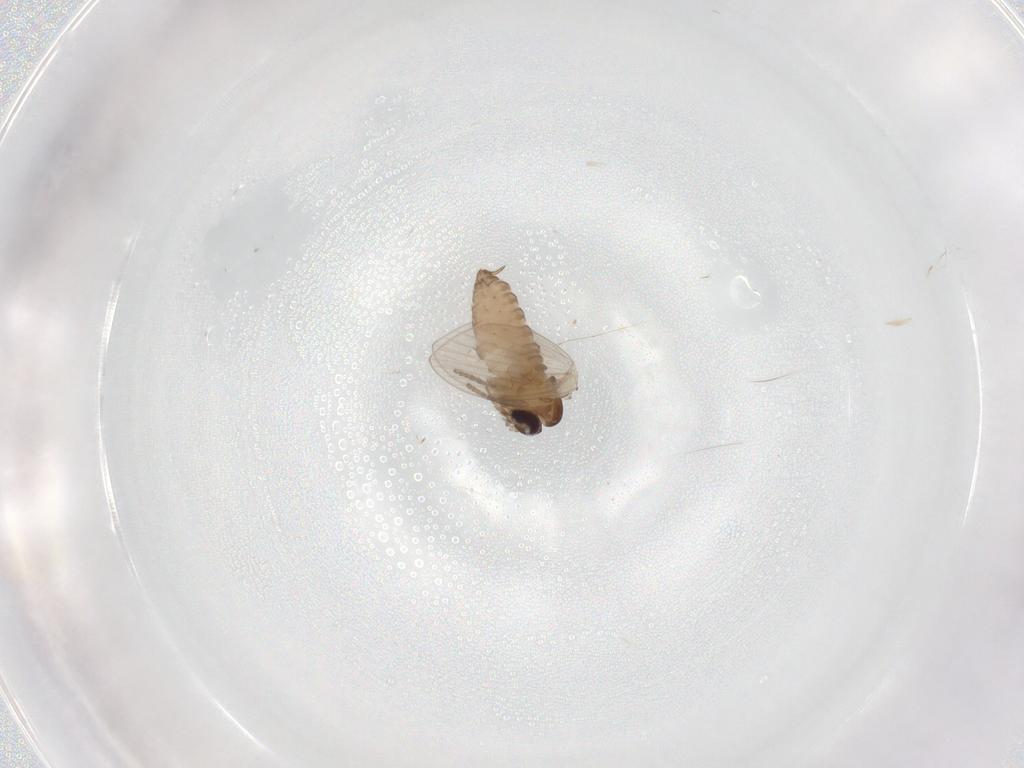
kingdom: Animalia
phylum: Arthropoda
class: Insecta
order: Diptera
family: Psychodidae
